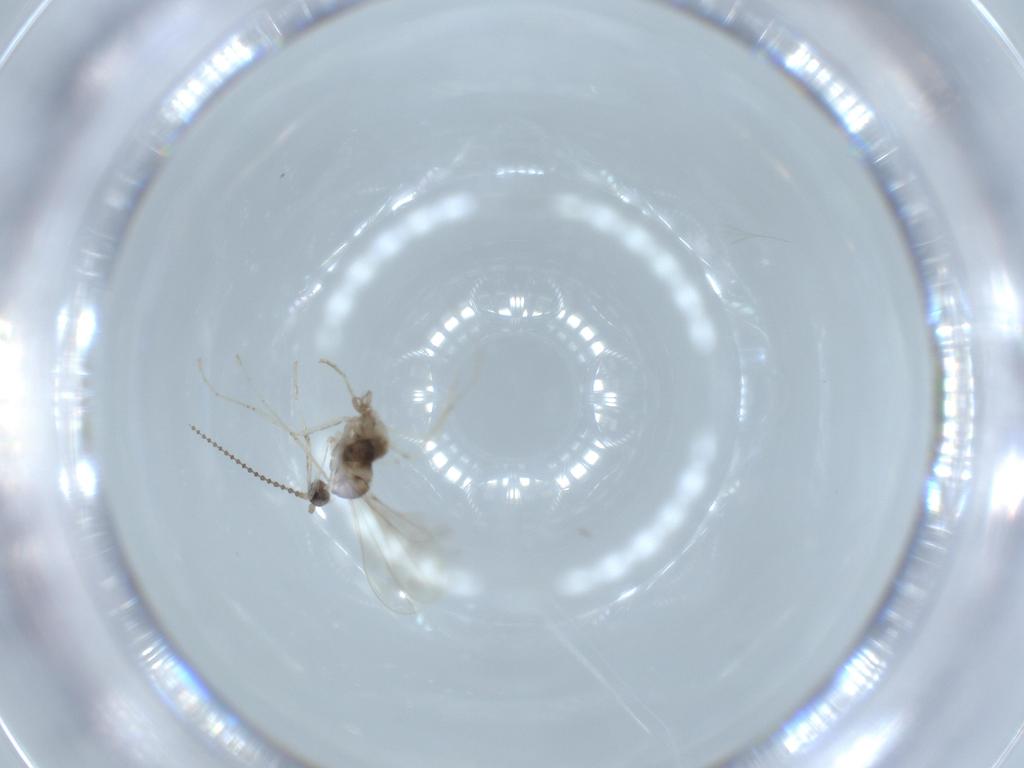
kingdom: Animalia
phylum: Arthropoda
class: Insecta
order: Diptera
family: Cecidomyiidae
